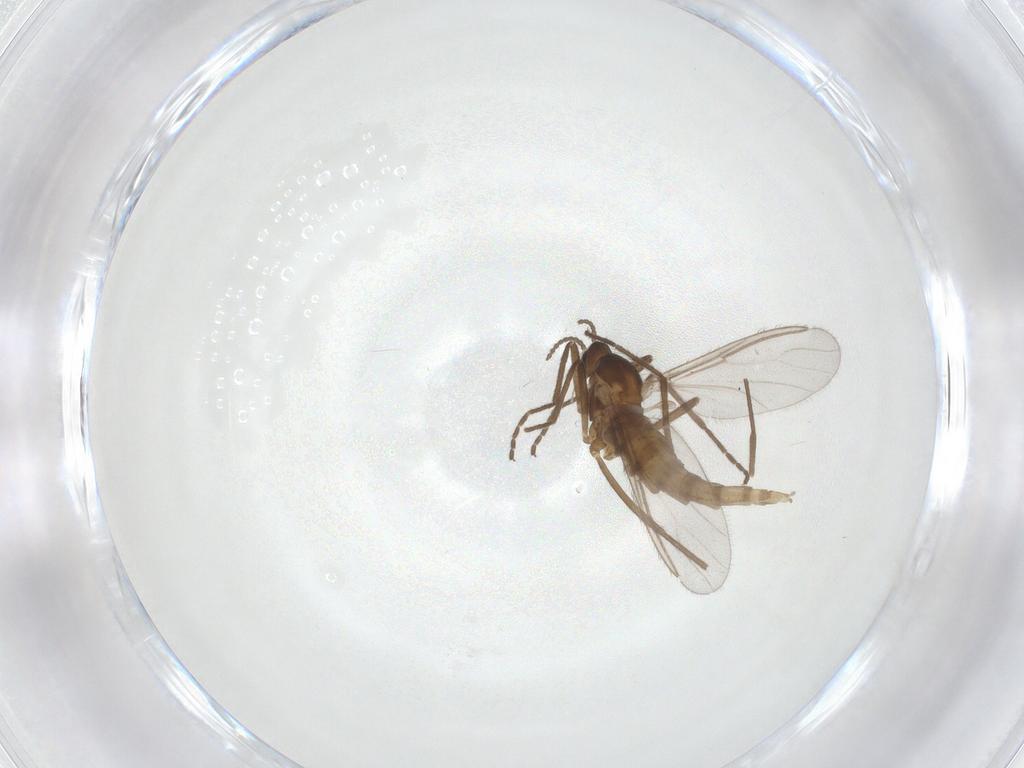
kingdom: Animalia
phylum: Arthropoda
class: Insecta
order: Diptera
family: Cecidomyiidae
